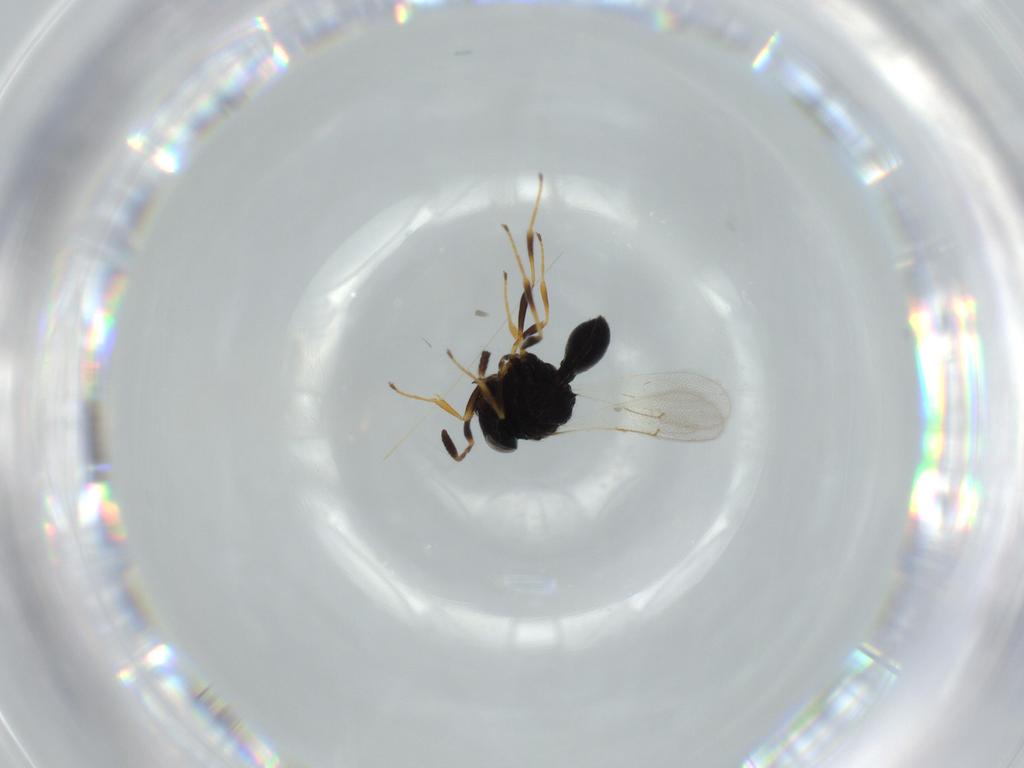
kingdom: Animalia
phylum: Arthropoda
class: Insecta
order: Hymenoptera
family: Scelionidae
